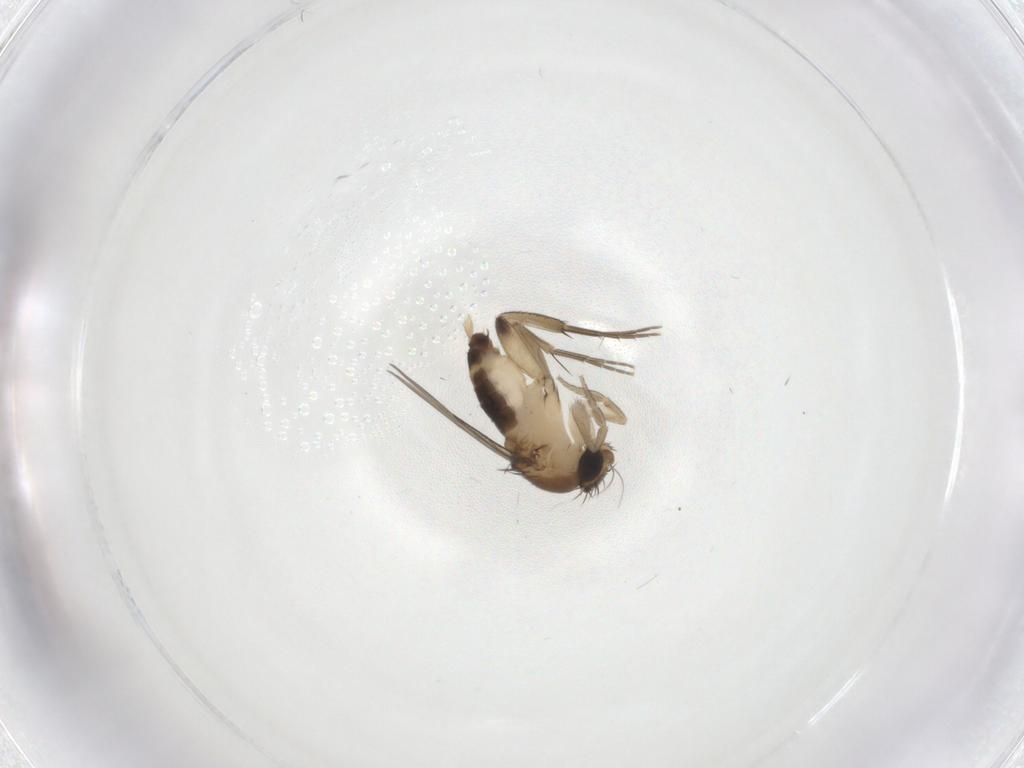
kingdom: Animalia
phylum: Arthropoda
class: Insecta
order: Diptera
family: Phoridae
